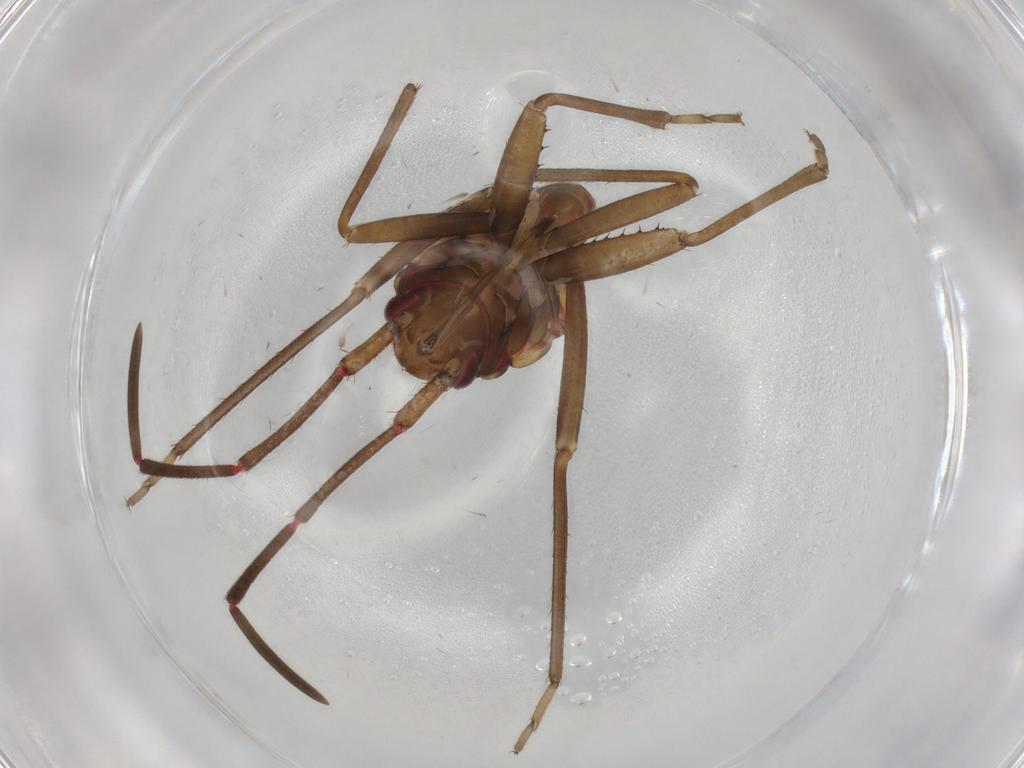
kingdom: Animalia
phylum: Arthropoda
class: Insecta
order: Hemiptera
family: Rhyparochromidae
